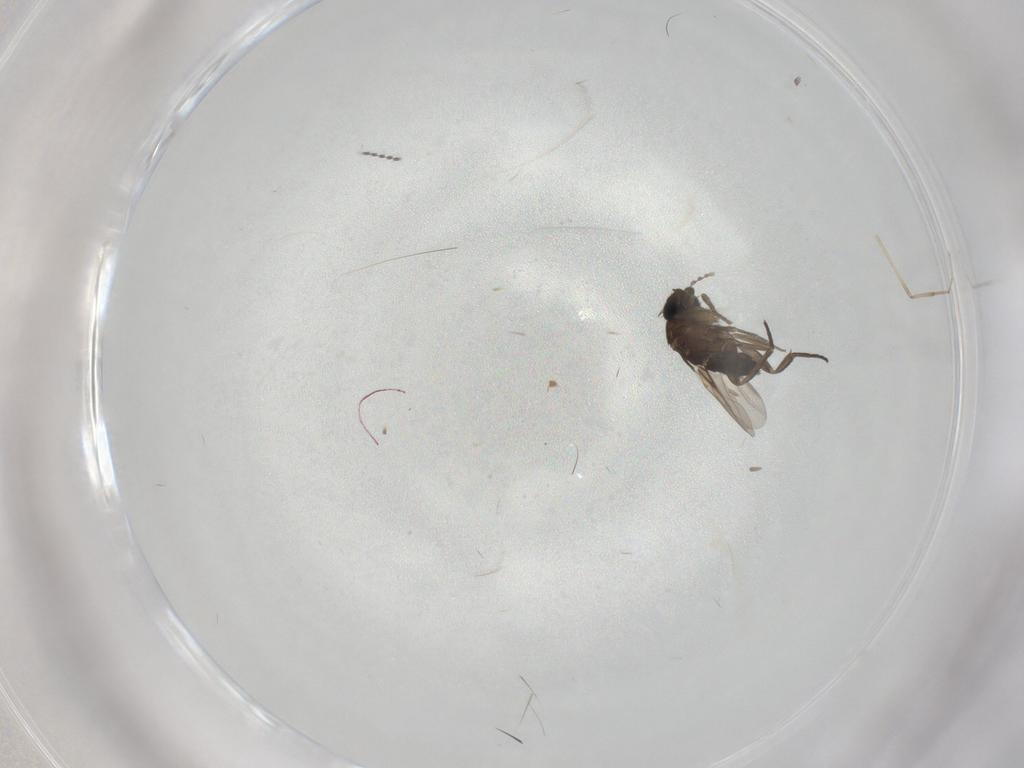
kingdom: Animalia
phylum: Arthropoda
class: Insecta
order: Diptera
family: Phoridae
